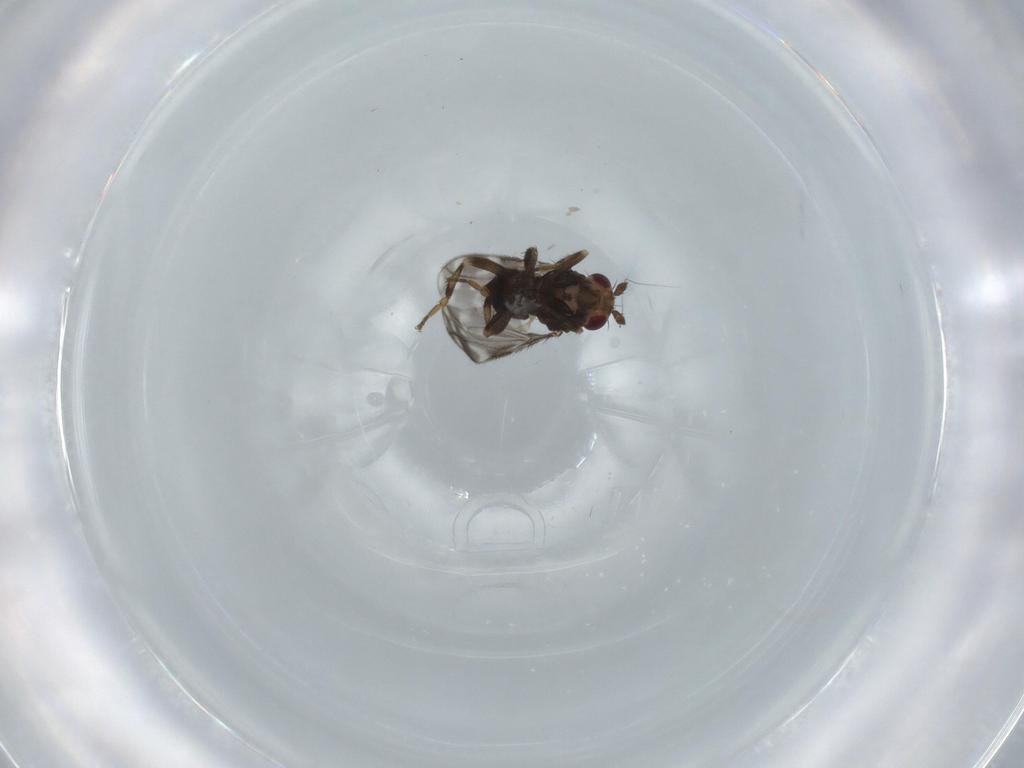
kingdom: Animalia
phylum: Arthropoda
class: Insecta
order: Diptera
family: Sphaeroceridae
